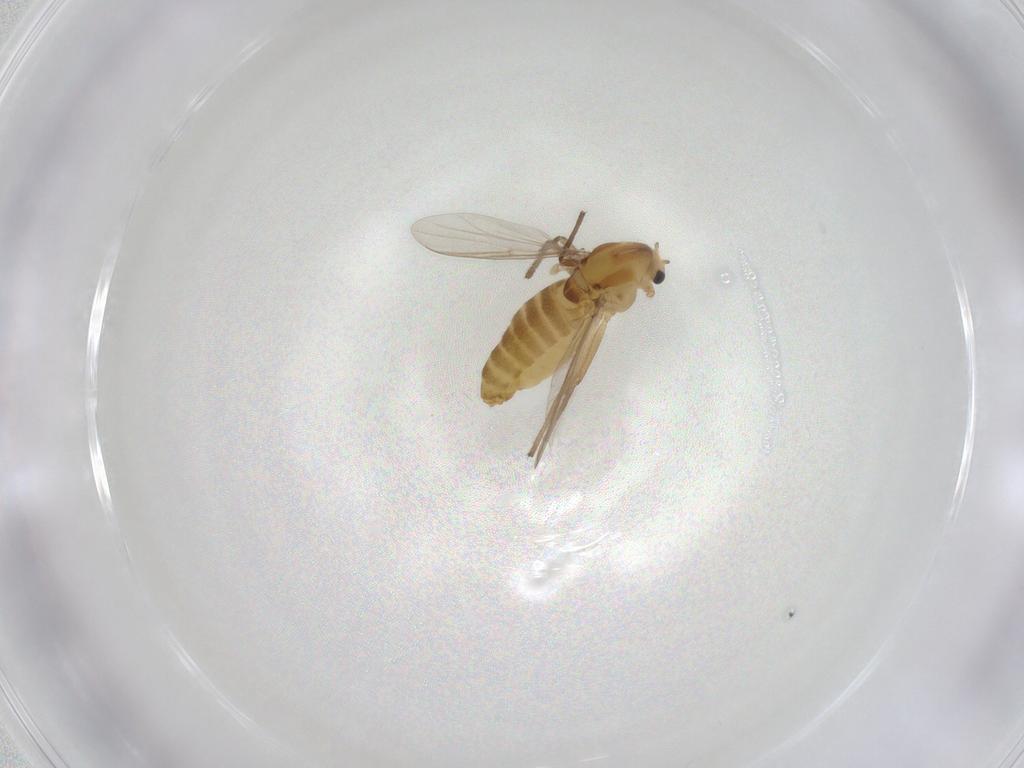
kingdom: Animalia
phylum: Arthropoda
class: Insecta
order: Diptera
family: Chironomidae
